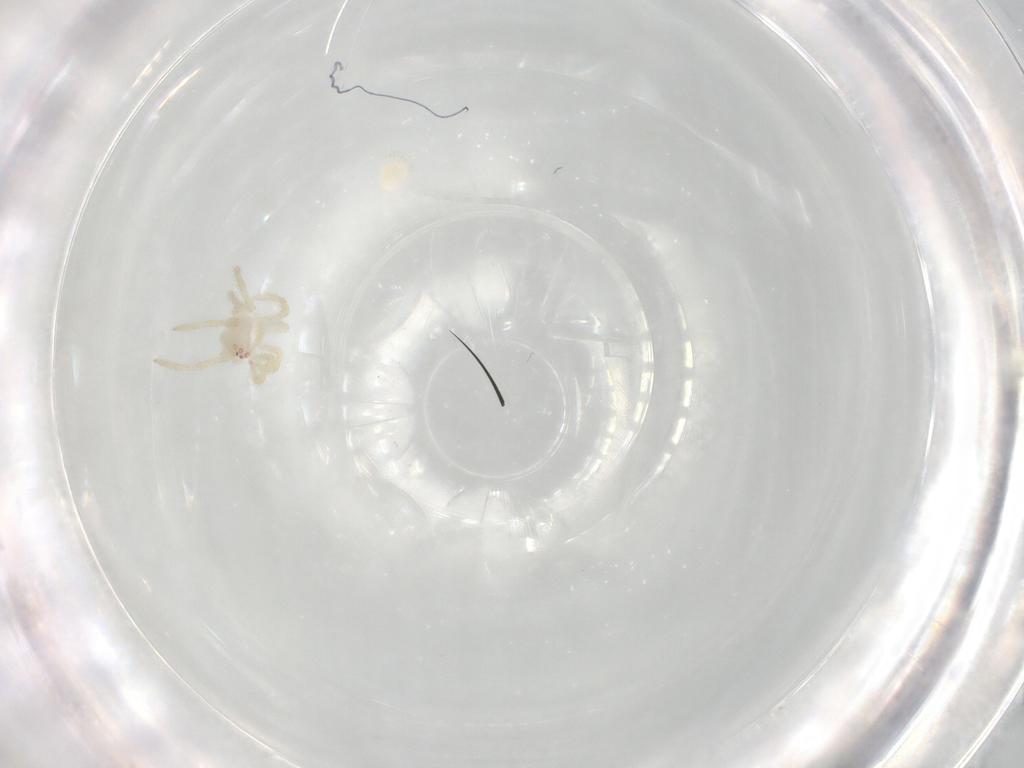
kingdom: Animalia
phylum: Arthropoda
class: Arachnida
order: Araneae
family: Theridiidae
